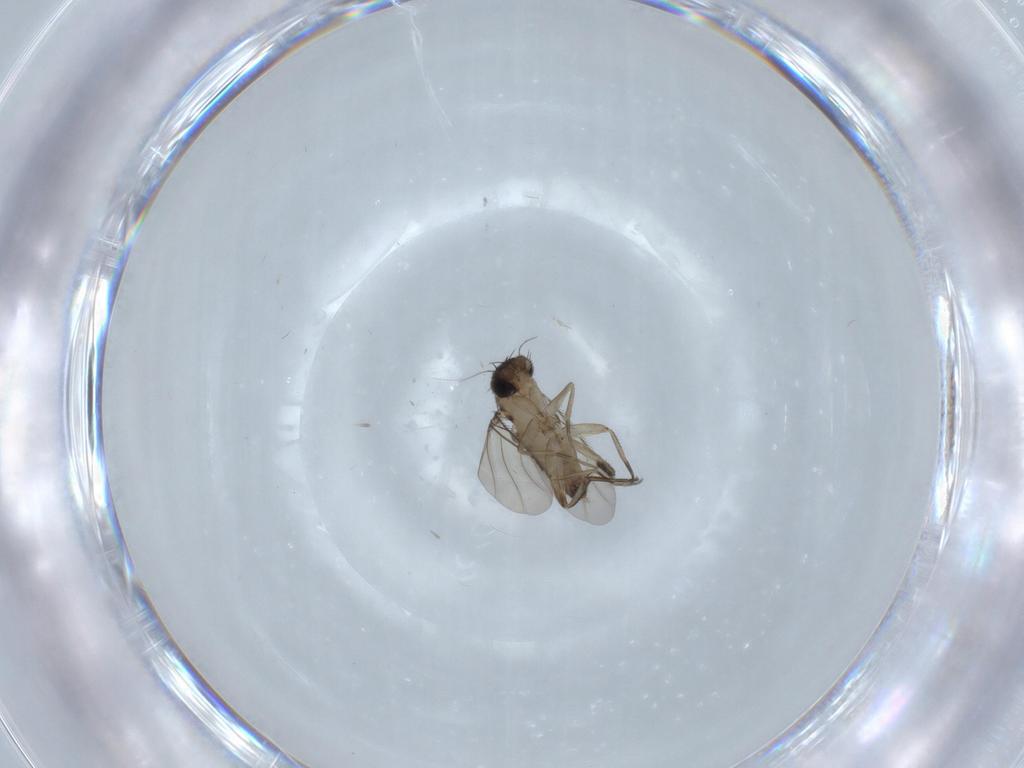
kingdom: Animalia
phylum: Arthropoda
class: Insecta
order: Diptera
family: Phoridae
